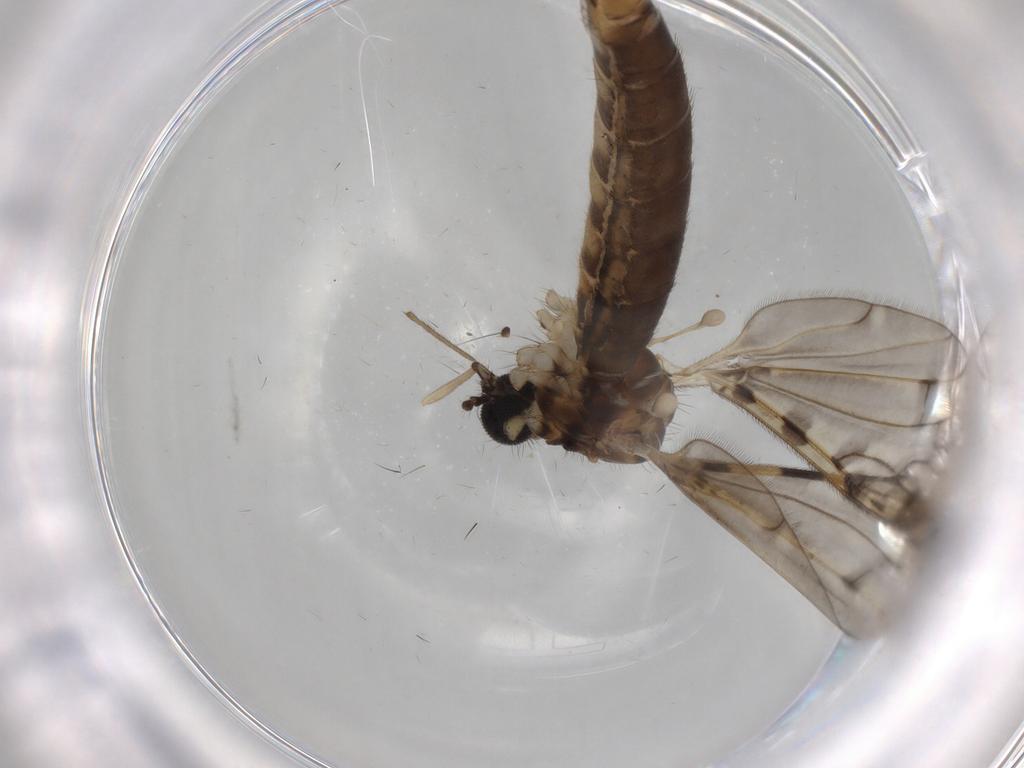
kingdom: Animalia
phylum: Arthropoda
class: Insecta
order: Diptera
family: Limoniidae
